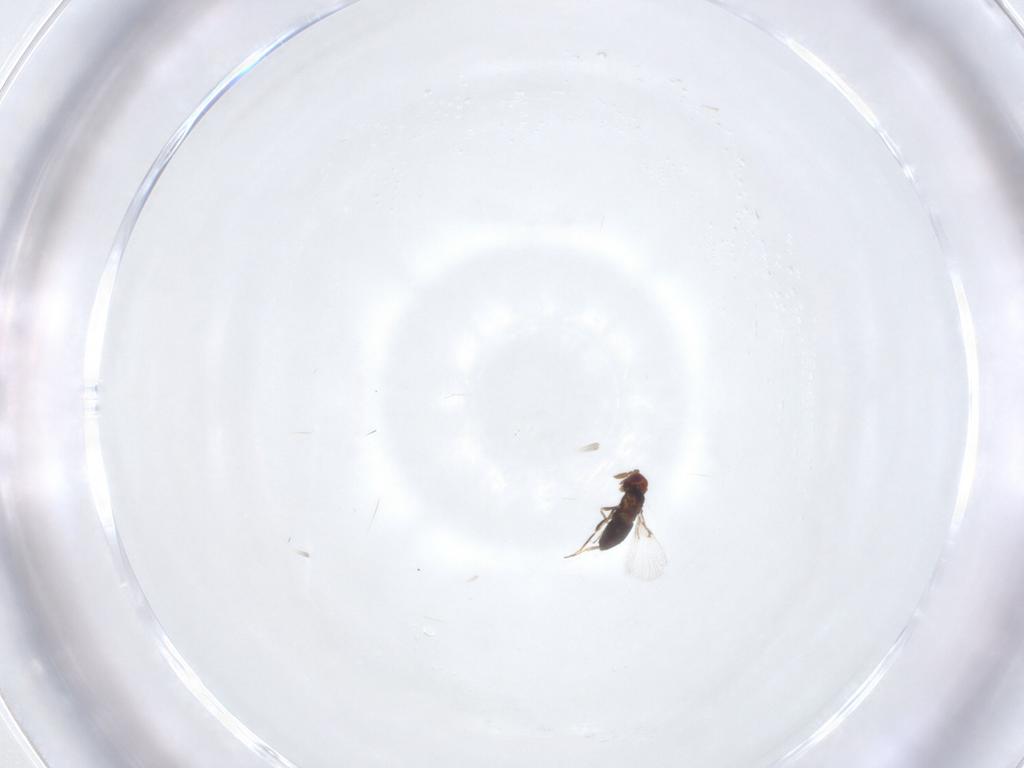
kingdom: Animalia
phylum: Arthropoda
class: Insecta
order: Hymenoptera
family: Agaonidae
